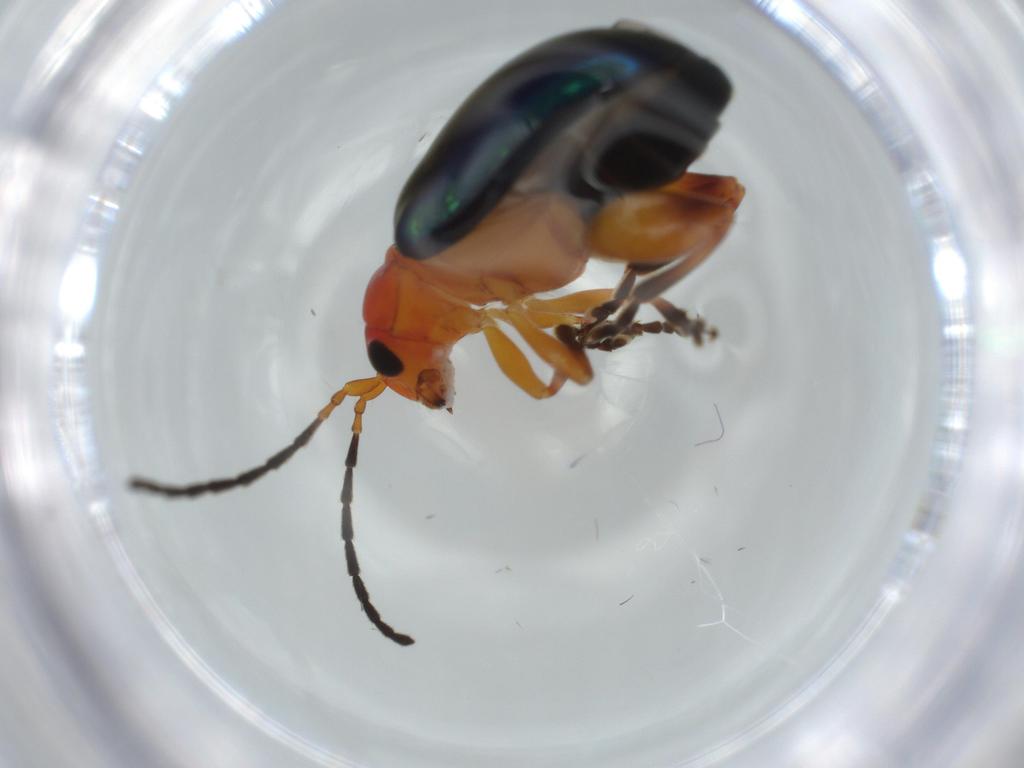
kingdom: Animalia
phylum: Arthropoda
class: Insecta
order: Coleoptera
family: Chrysomelidae
